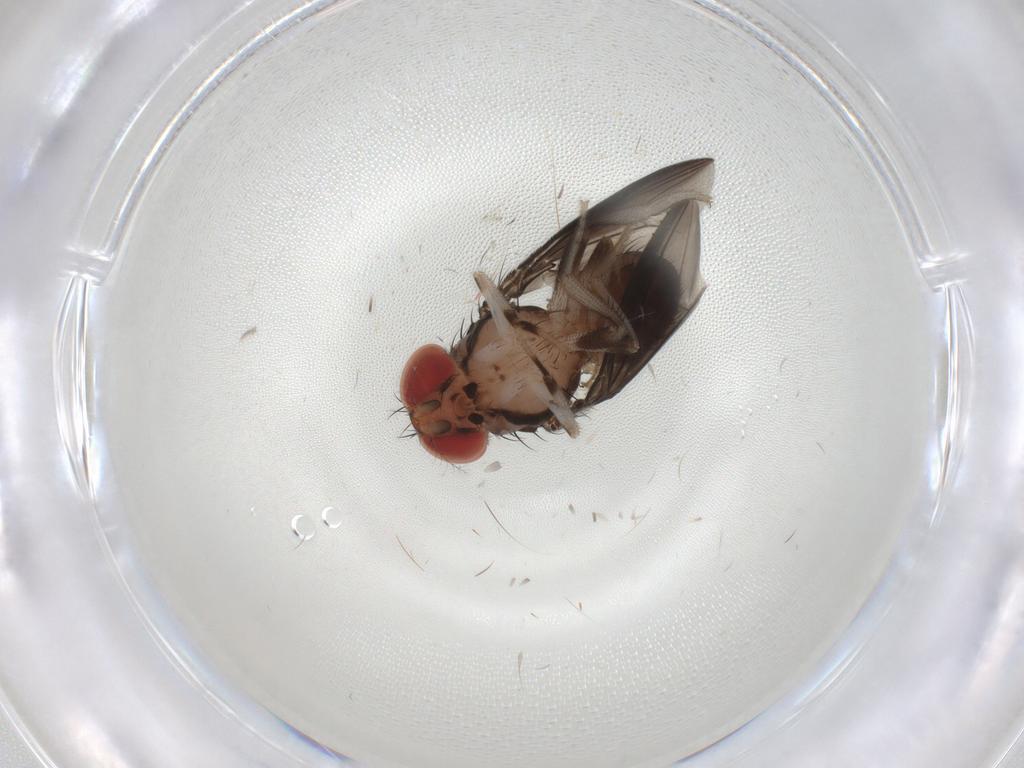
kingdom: Animalia
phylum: Arthropoda
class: Insecta
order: Diptera
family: Cecidomyiidae
